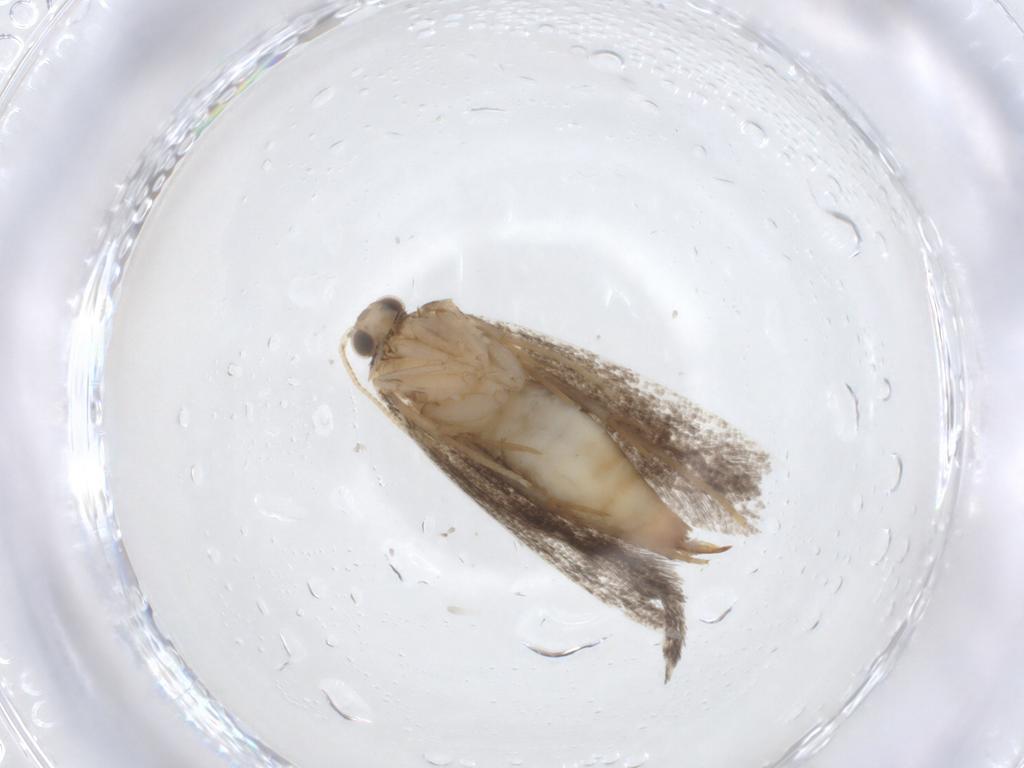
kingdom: Animalia
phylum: Arthropoda
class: Insecta
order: Lepidoptera
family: Tineidae
